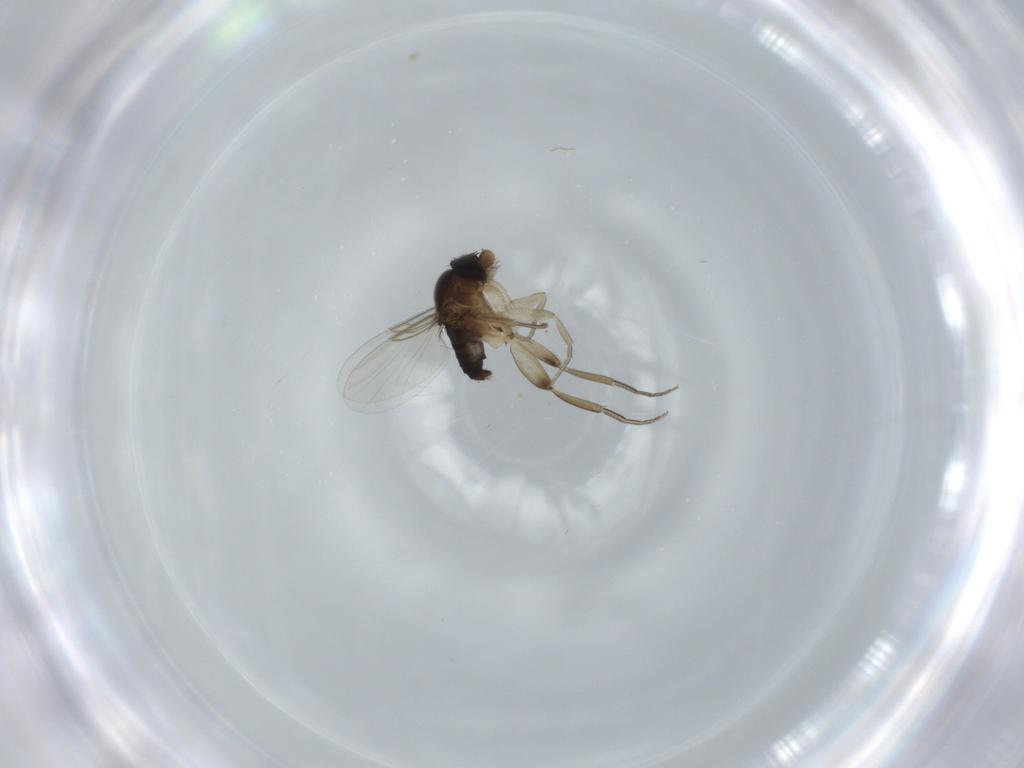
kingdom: Animalia
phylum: Arthropoda
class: Insecta
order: Diptera
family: Phoridae
